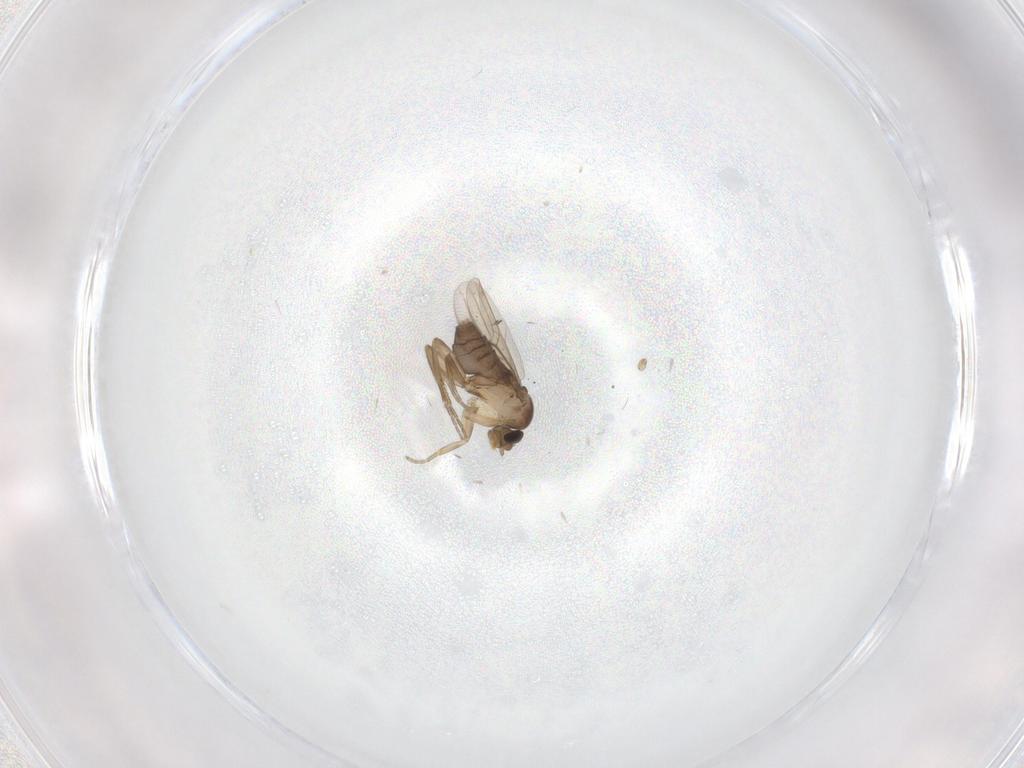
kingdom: Animalia
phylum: Arthropoda
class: Insecta
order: Diptera
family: Phoridae
